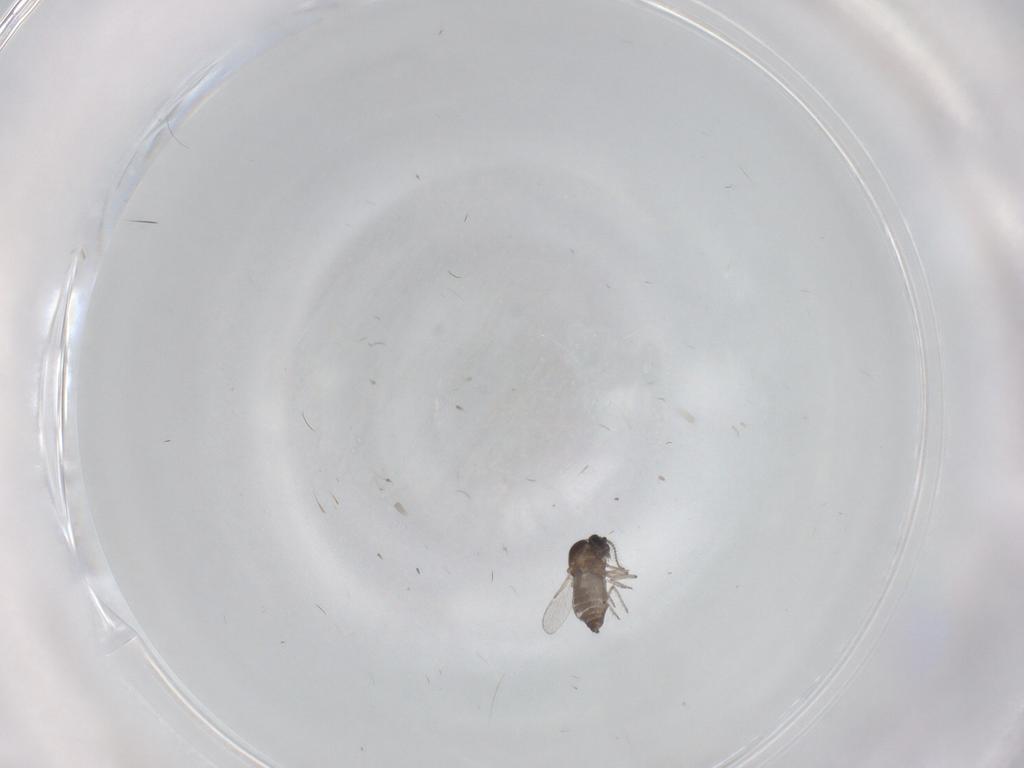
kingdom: Animalia
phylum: Arthropoda
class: Insecta
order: Diptera
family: Ceratopogonidae
